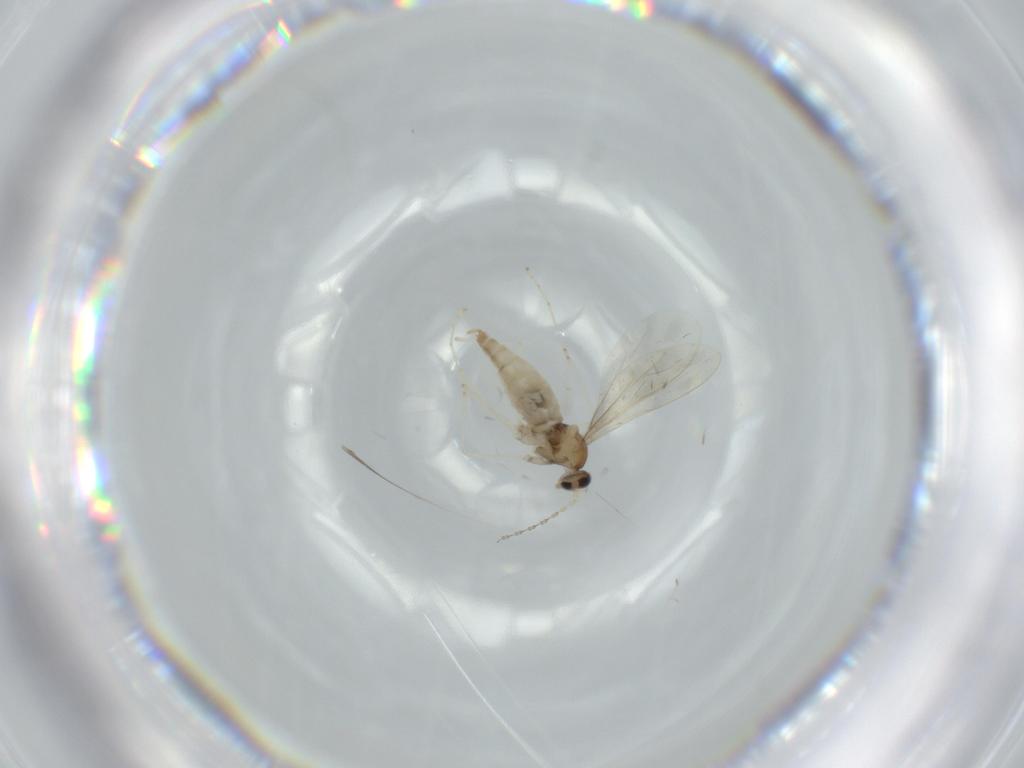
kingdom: Animalia
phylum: Arthropoda
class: Insecta
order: Diptera
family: Cecidomyiidae
